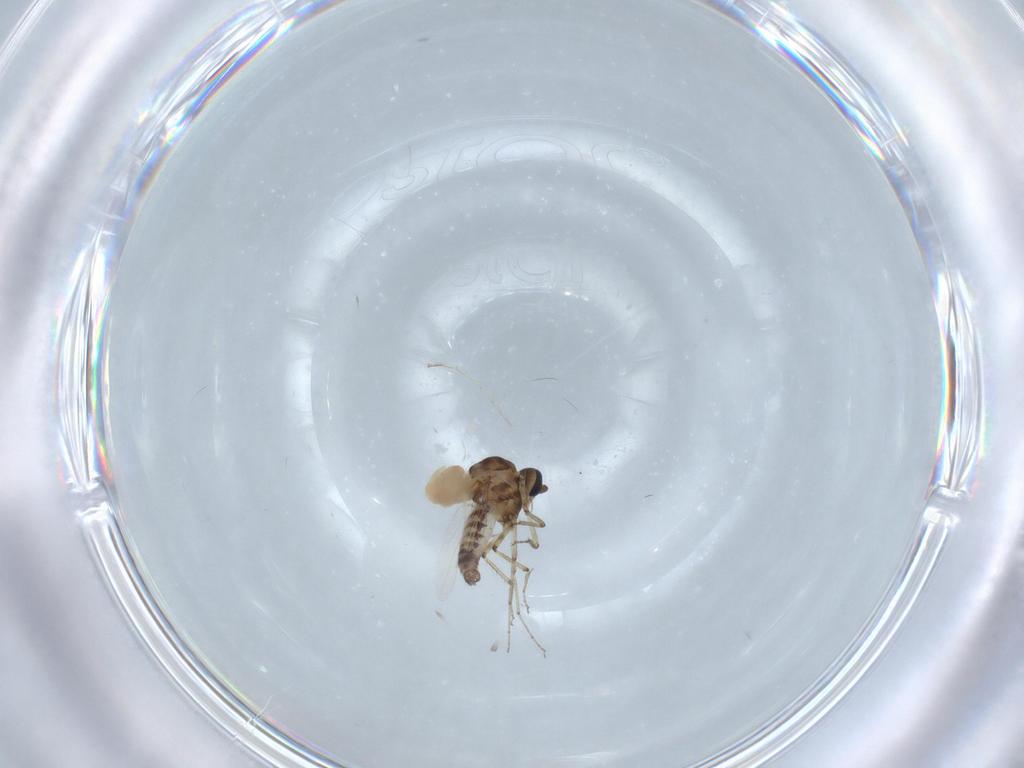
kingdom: Animalia
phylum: Arthropoda
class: Insecta
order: Diptera
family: Ceratopogonidae
